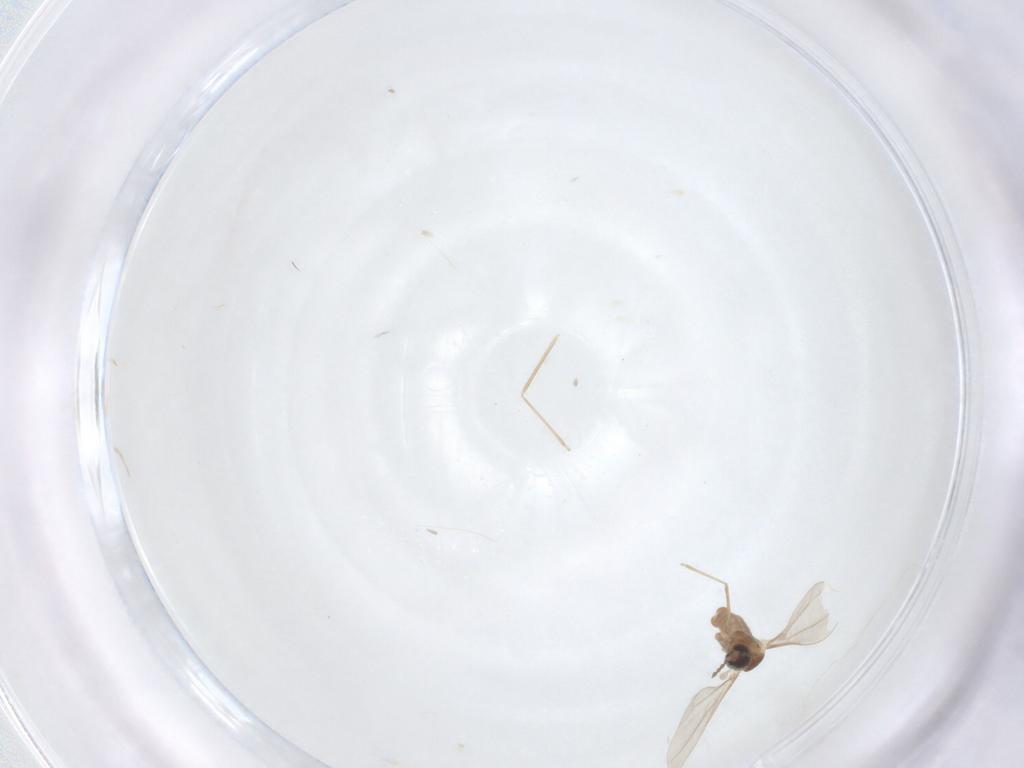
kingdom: Animalia
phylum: Arthropoda
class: Insecta
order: Diptera
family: Cecidomyiidae
